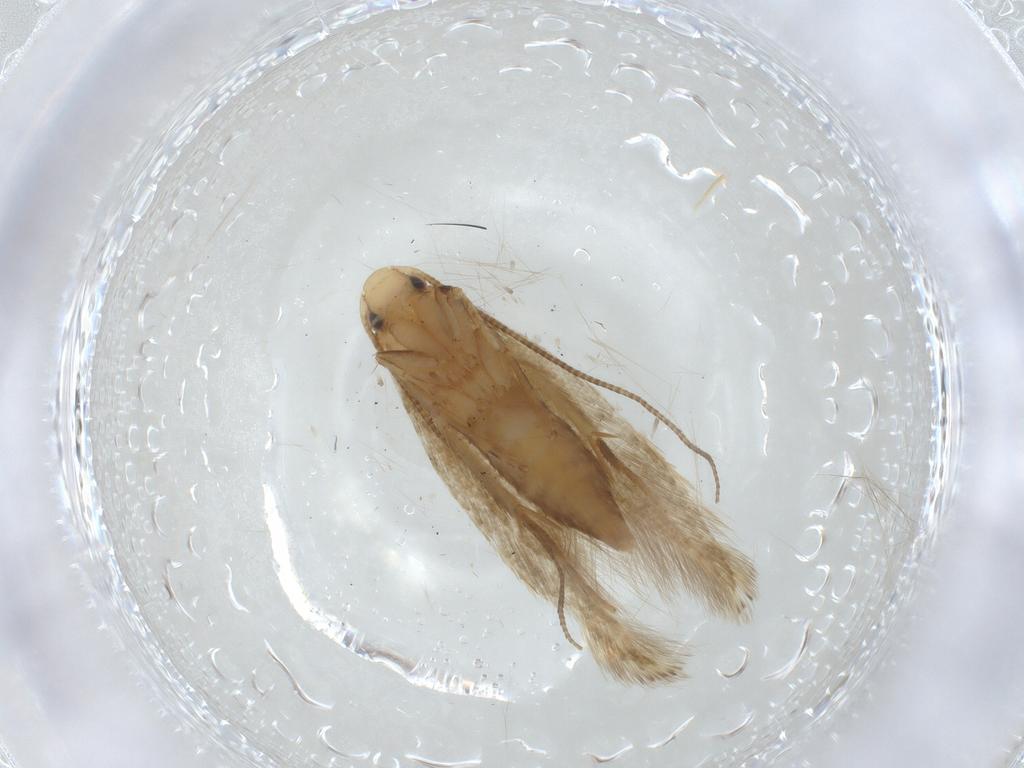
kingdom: Animalia
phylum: Arthropoda
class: Insecta
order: Lepidoptera
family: Tineidae
